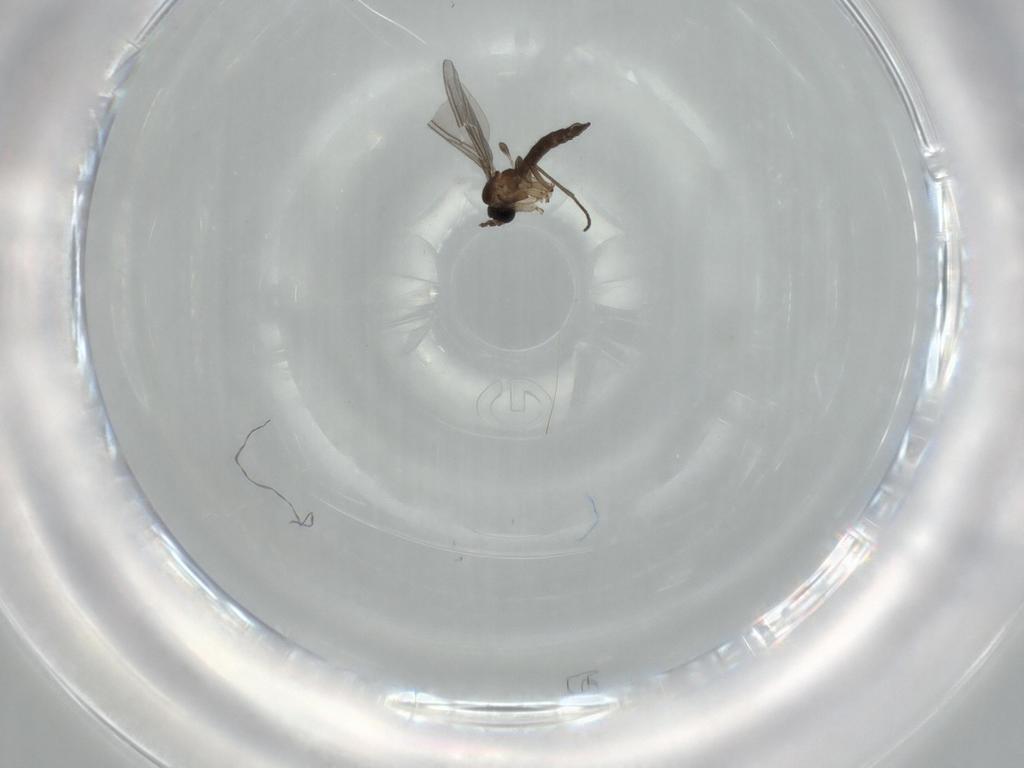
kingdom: Animalia
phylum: Arthropoda
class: Insecta
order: Diptera
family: Sciaridae
